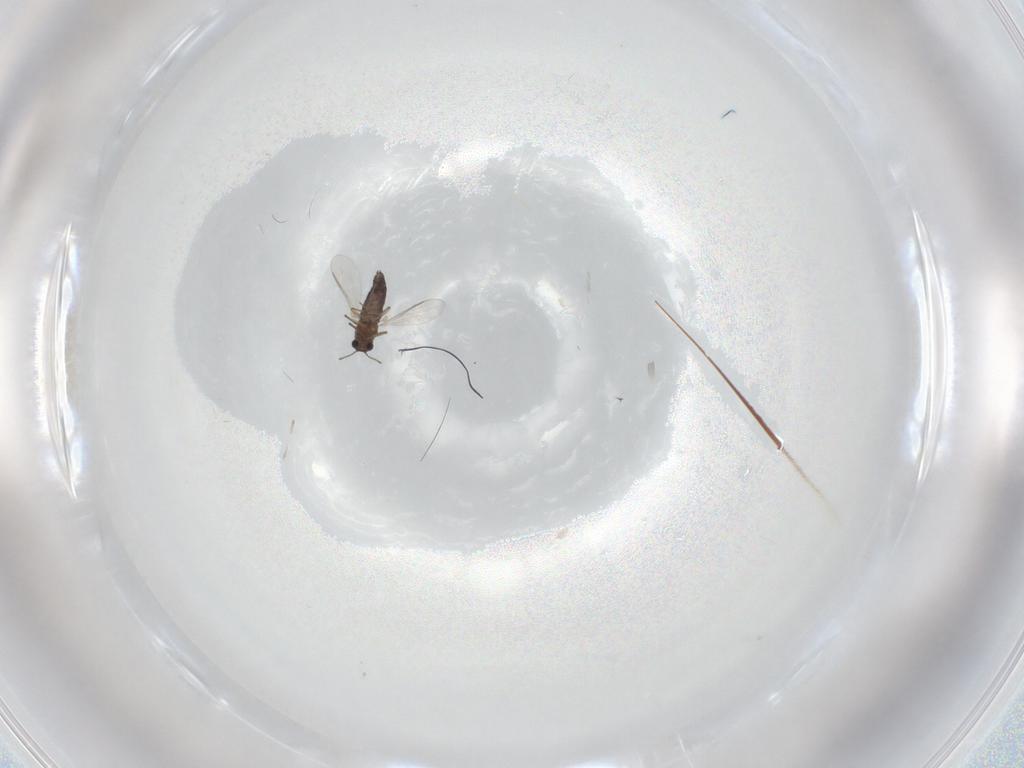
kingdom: Animalia
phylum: Arthropoda
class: Insecta
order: Diptera
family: Chironomidae
